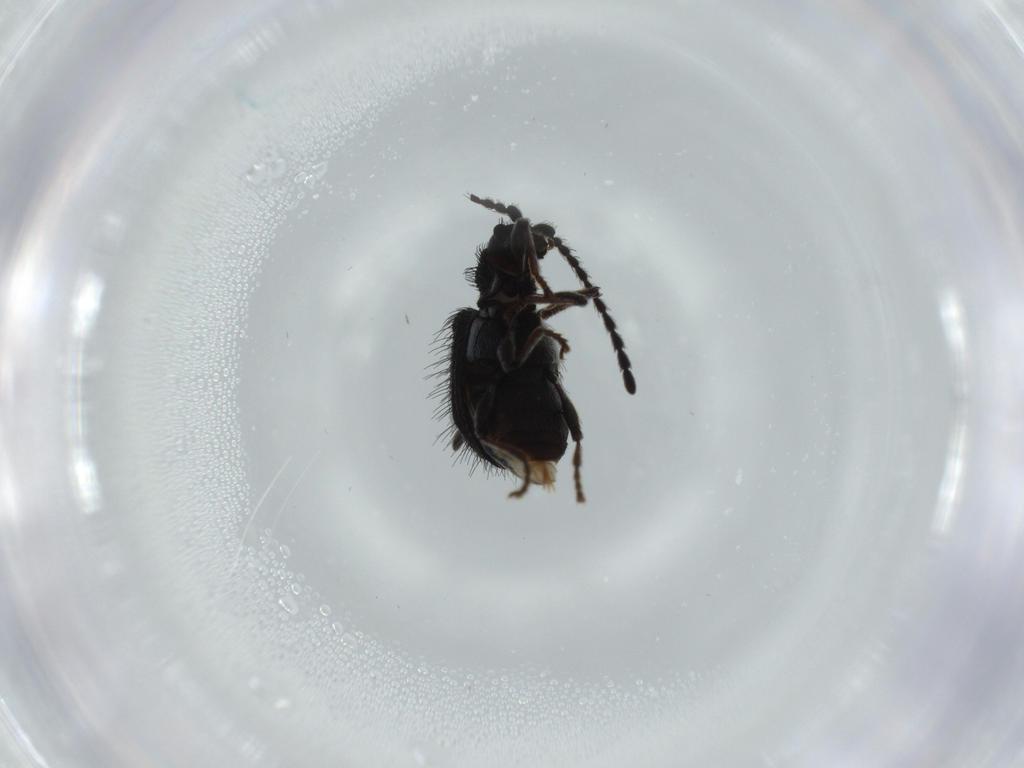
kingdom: Animalia
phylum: Arthropoda
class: Insecta
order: Coleoptera
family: Ptinidae
